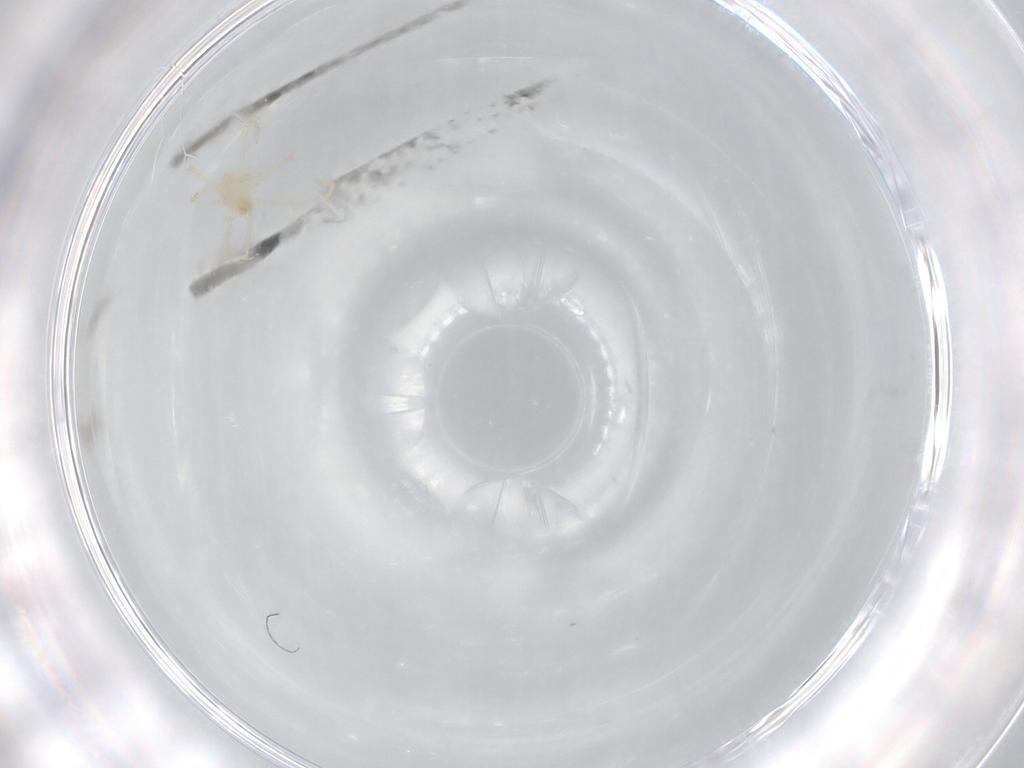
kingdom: Animalia
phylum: Arthropoda
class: Arachnida
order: Trombidiformes
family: Erythraeidae
